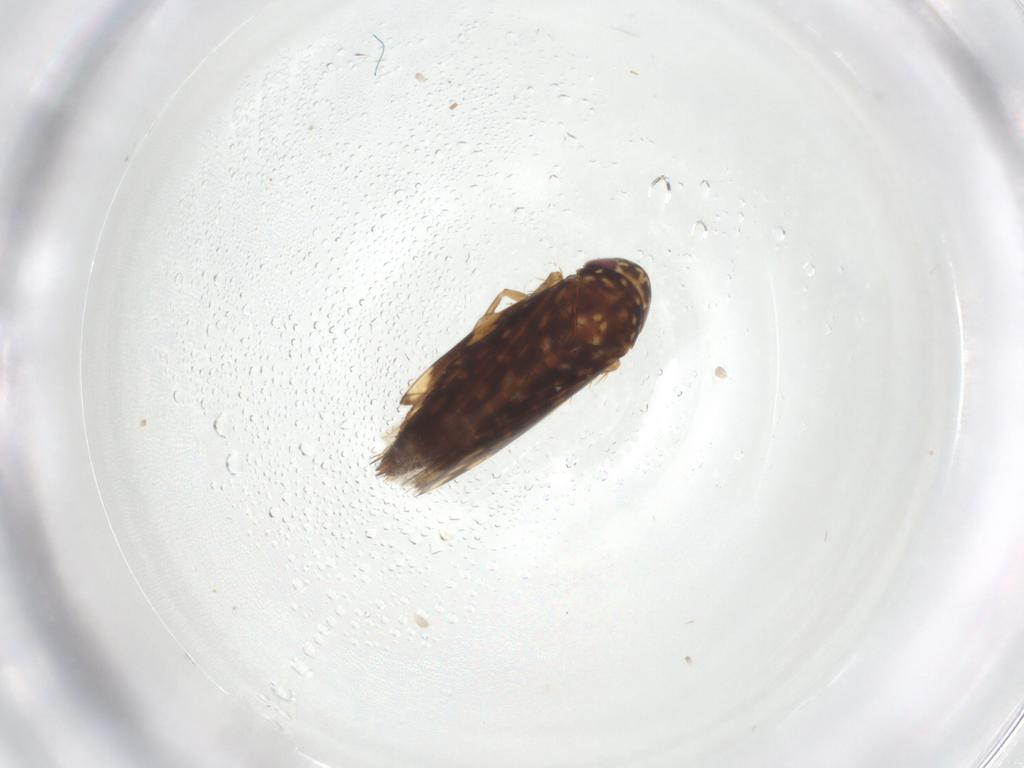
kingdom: Animalia
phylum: Arthropoda
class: Insecta
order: Hemiptera
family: Cicadellidae
